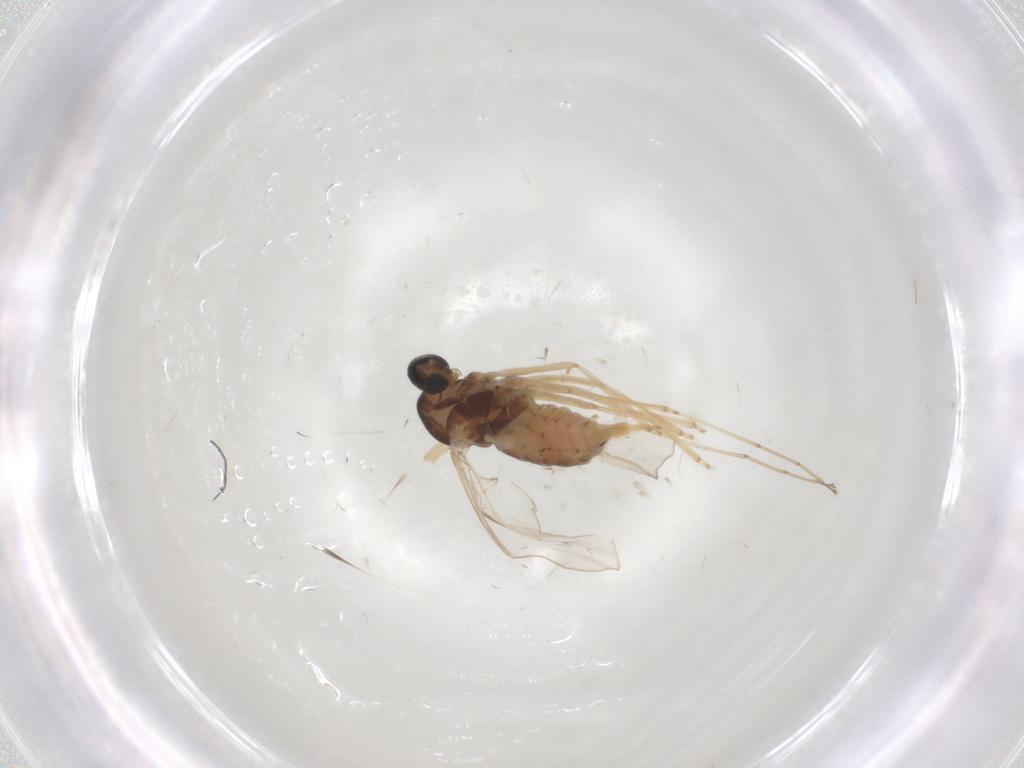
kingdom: Animalia
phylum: Arthropoda
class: Insecta
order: Diptera
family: Cecidomyiidae
